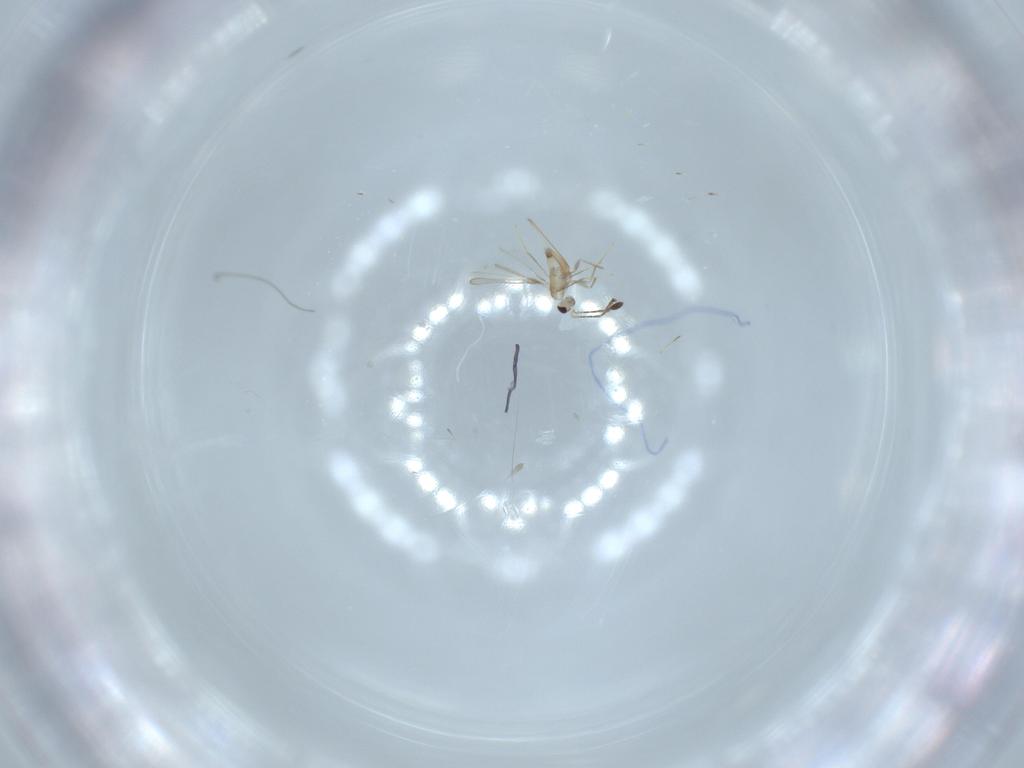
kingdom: Animalia
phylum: Arthropoda
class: Insecta
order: Hymenoptera
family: Mymaridae
